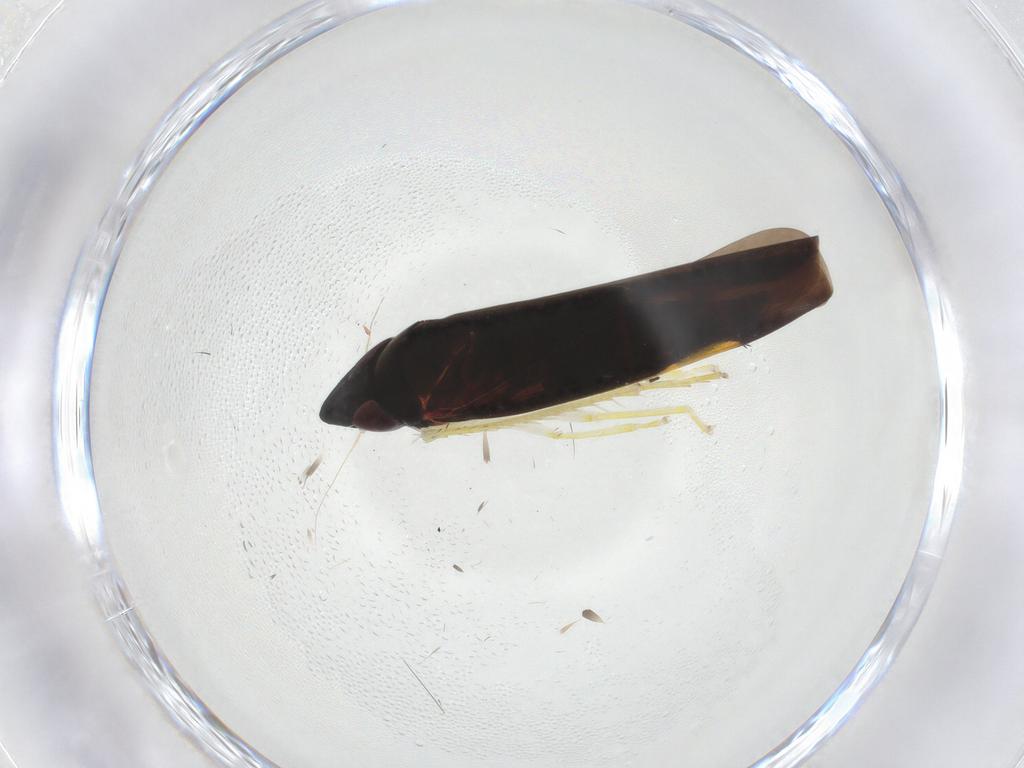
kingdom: Animalia
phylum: Arthropoda
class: Insecta
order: Hemiptera
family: Cicadellidae
